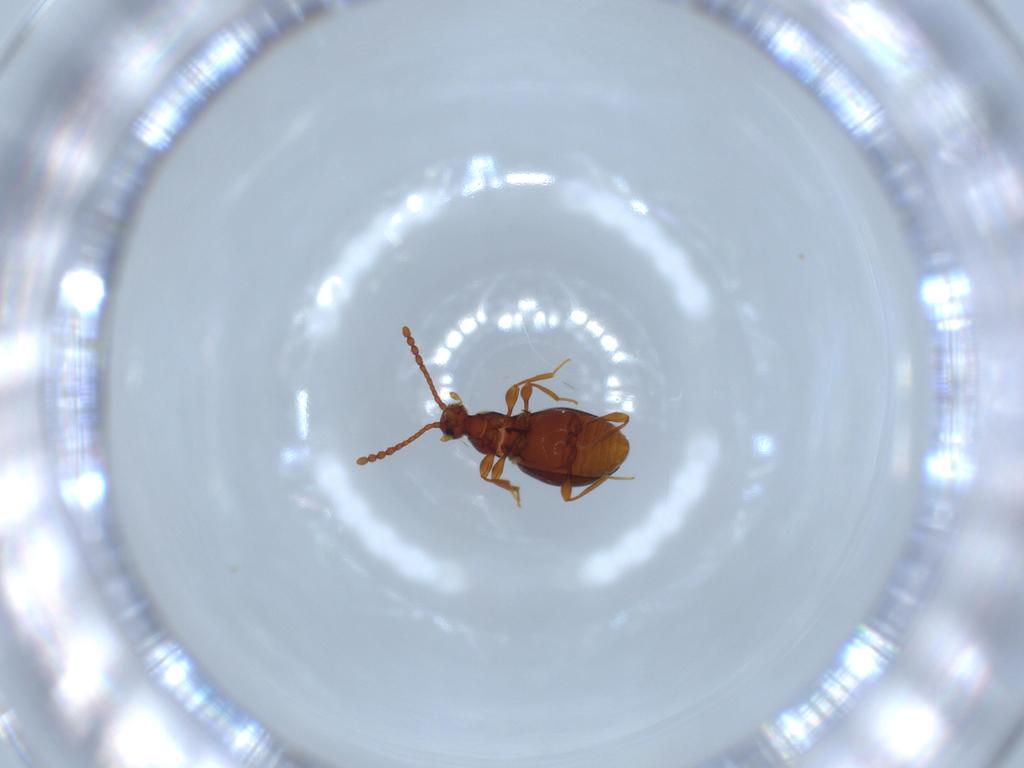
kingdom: Animalia
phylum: Arthropoda
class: Insecta
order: Coleoptera
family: Staphylinidae
